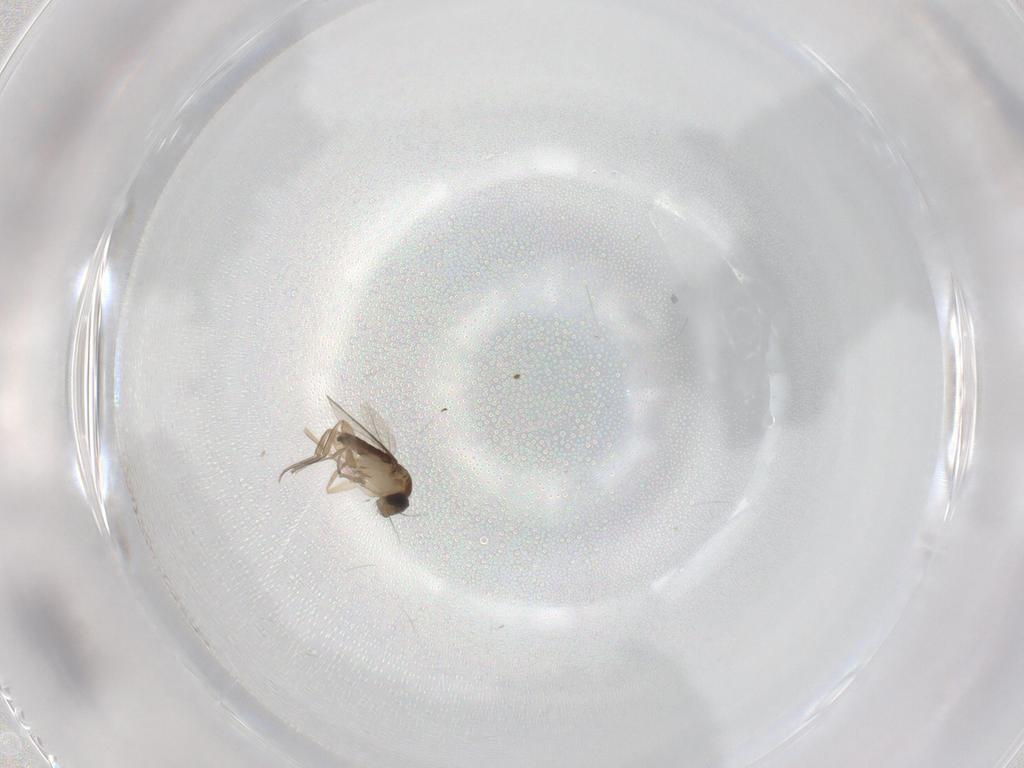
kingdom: Animalia
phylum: Arthropoda
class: Insecta
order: Diptera
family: Phoridae
